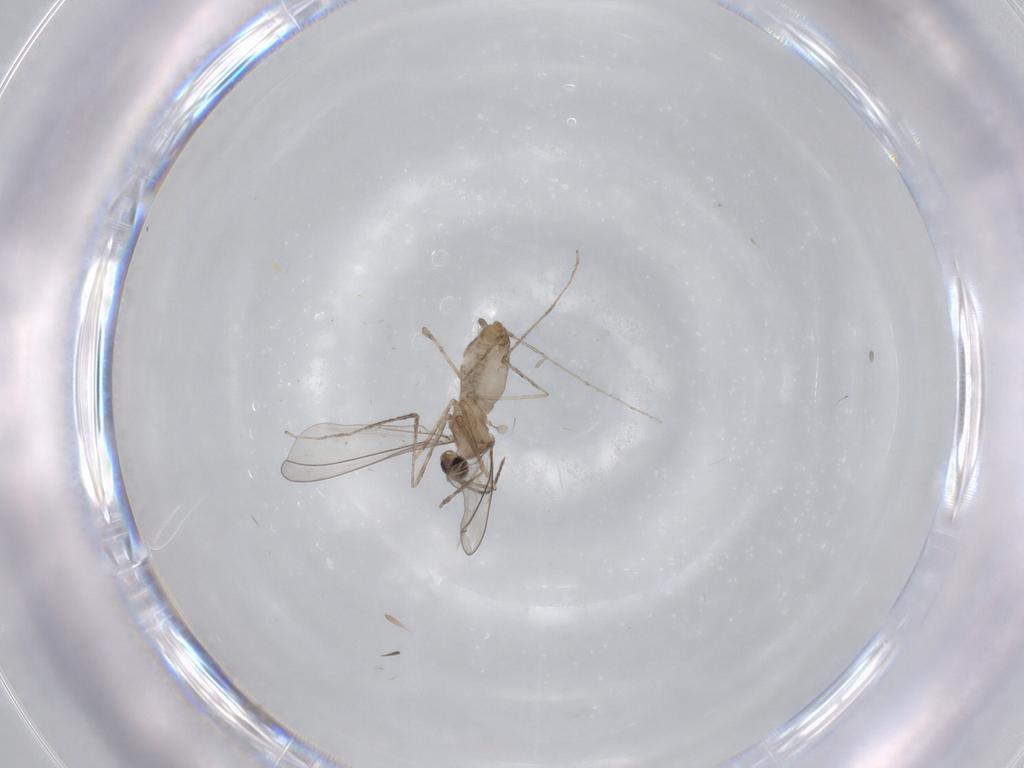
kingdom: Animalia
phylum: Arthropoda
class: Insecta
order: Diptera
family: Cecidomyiidae
